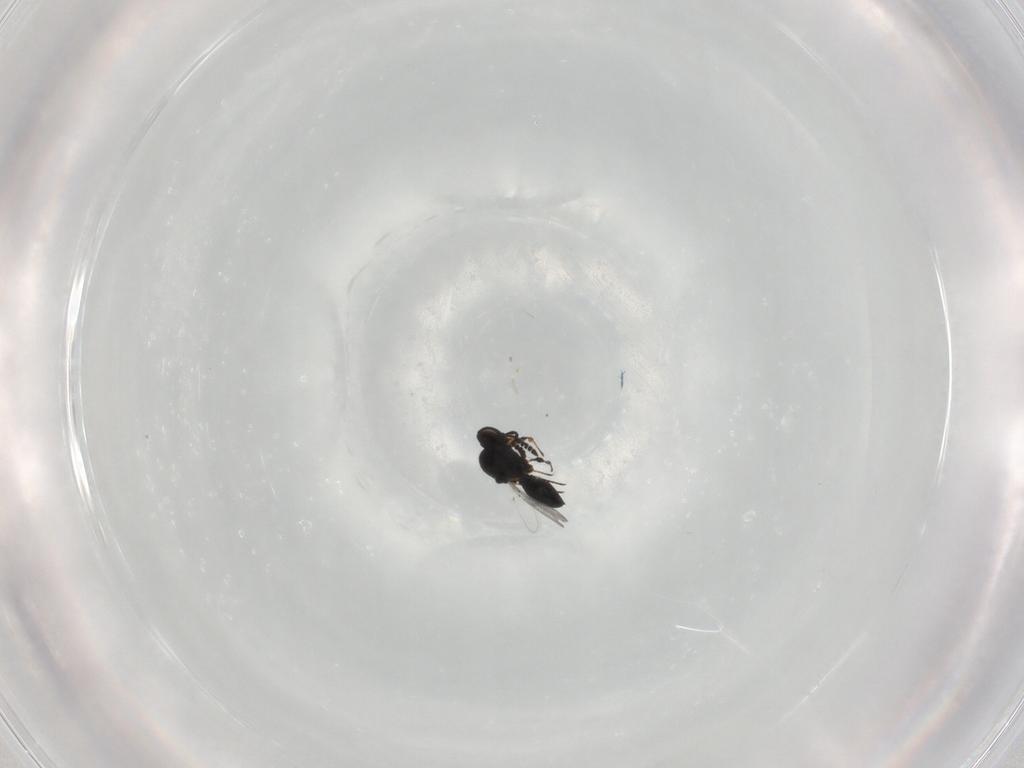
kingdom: Animalia
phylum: Arthropoda
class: Insecta
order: Hymenoptera
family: Platygastridae
